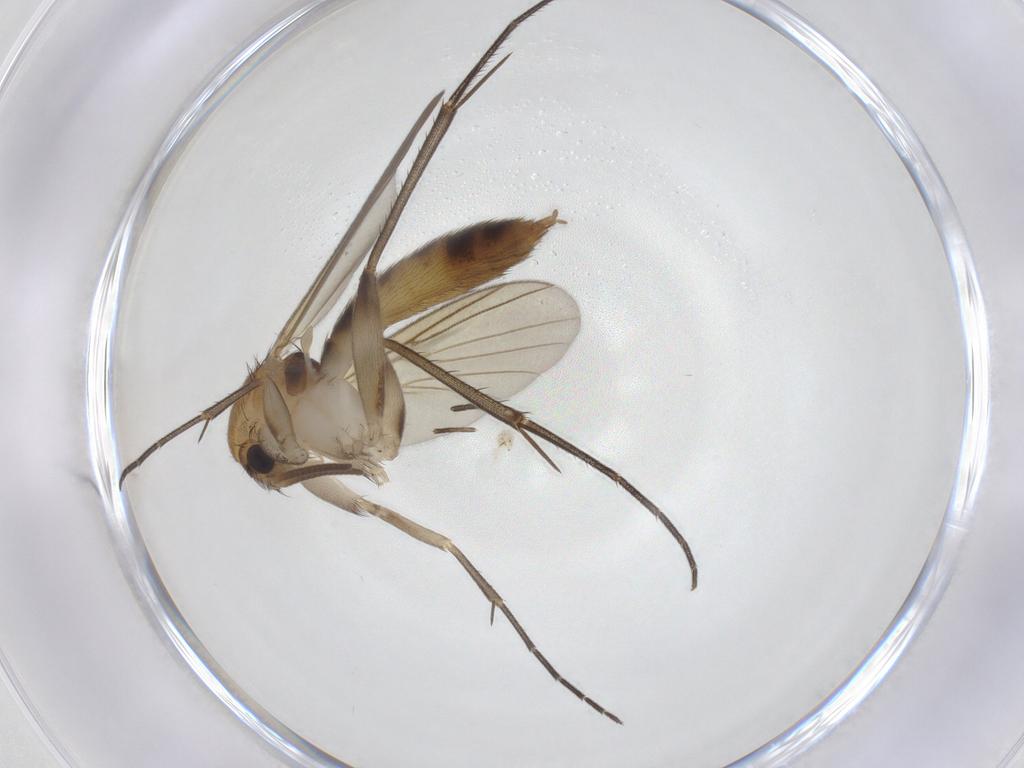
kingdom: Animalia
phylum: Arthropoda
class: Insecta
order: Diptera
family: Mycetophilidae
